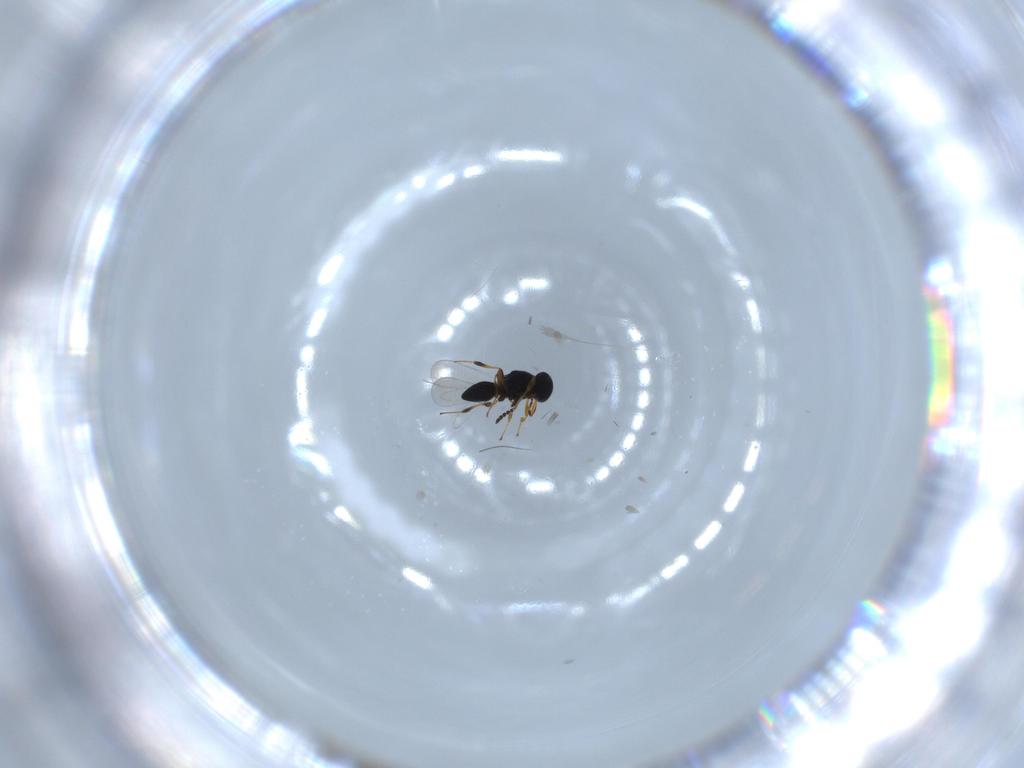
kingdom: Animalia
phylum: Arthropoda
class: Insecta
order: Hymenoptera
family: Platygastridae
